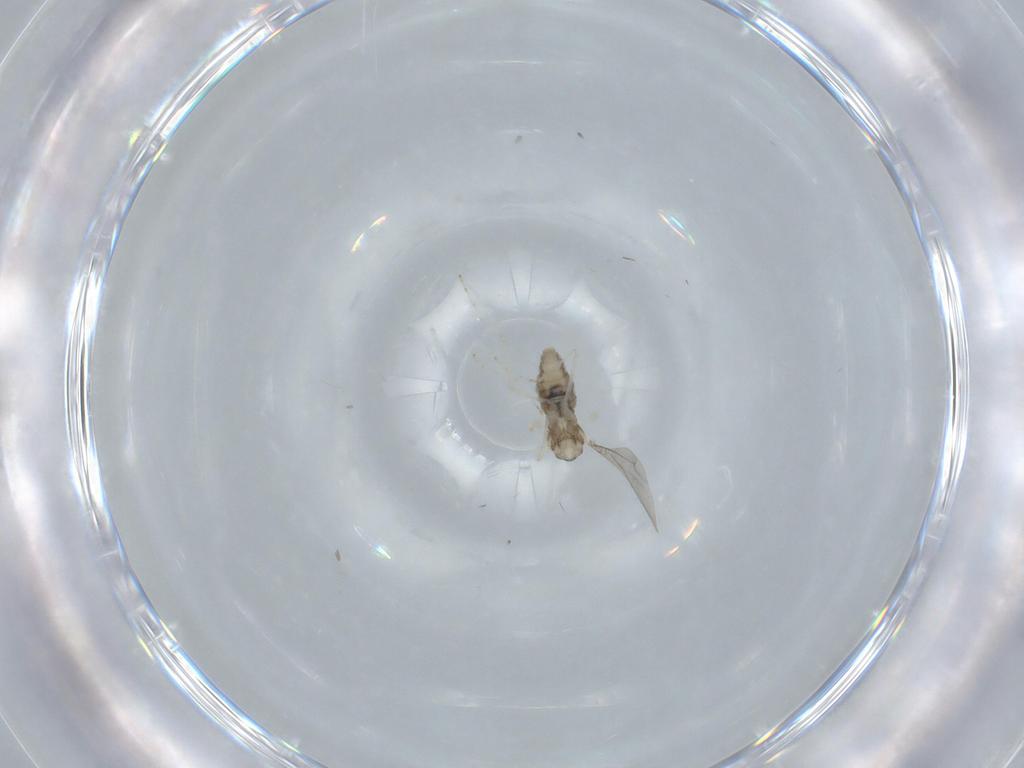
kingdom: Animalia
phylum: Arthropoda
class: Insecta
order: Diptera
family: Cecidomyiidae
